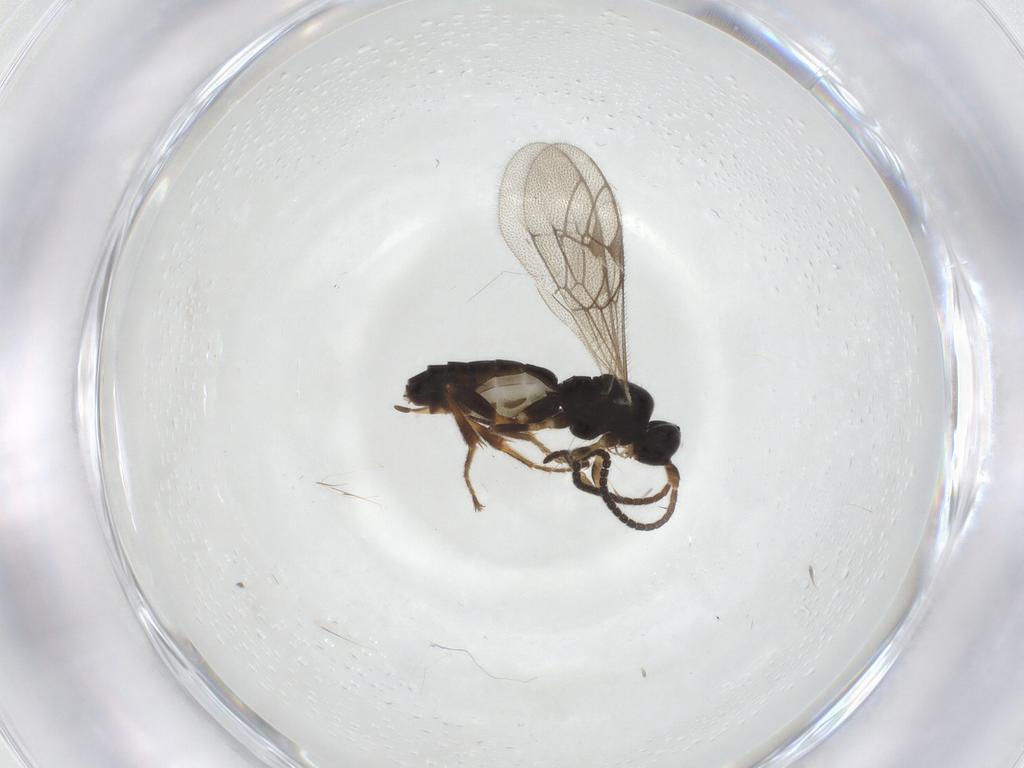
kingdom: Animalia
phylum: Arthropoda
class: Insecta
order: Hymenoptera
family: Ichneumonidae
